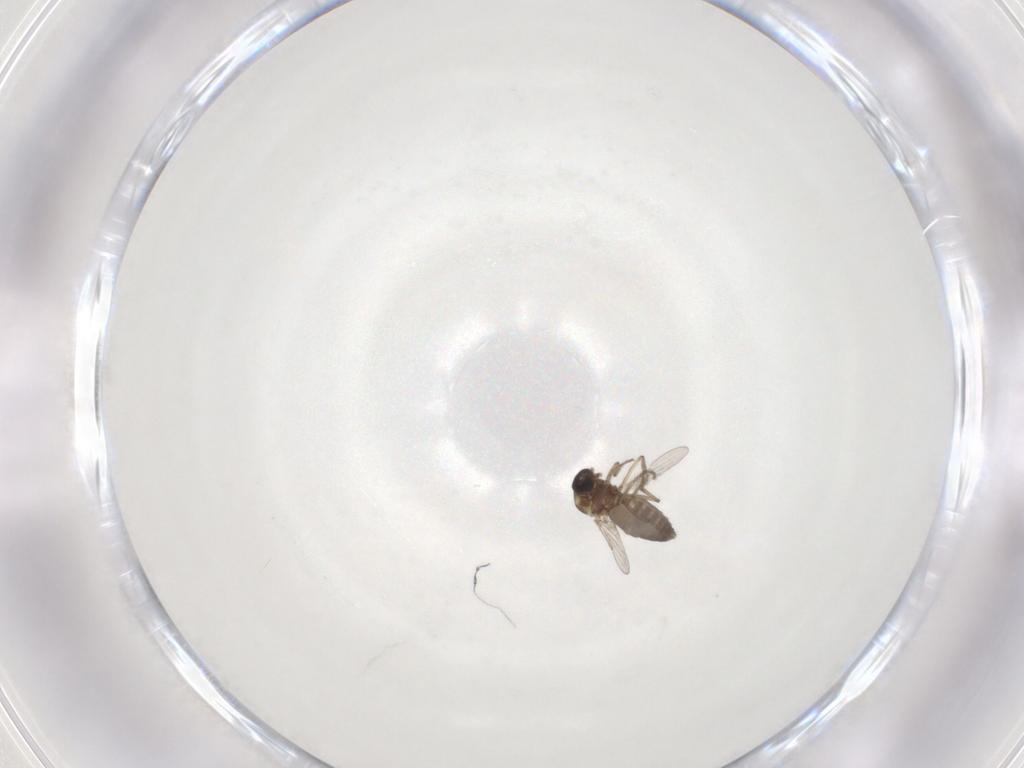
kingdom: Animalia
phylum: Arthropoda
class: Insecta
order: Diptera
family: Ceratopogonidae
